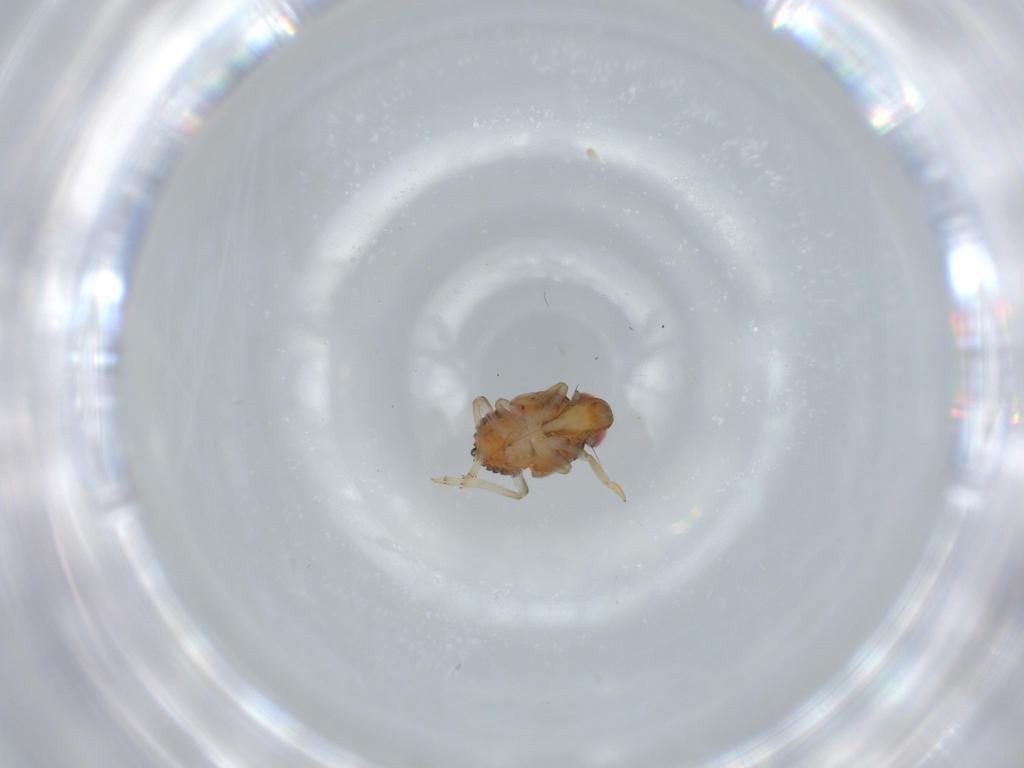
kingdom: Animalia
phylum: Arthropoda
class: Insecta
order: Hemiptera
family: Issidae
